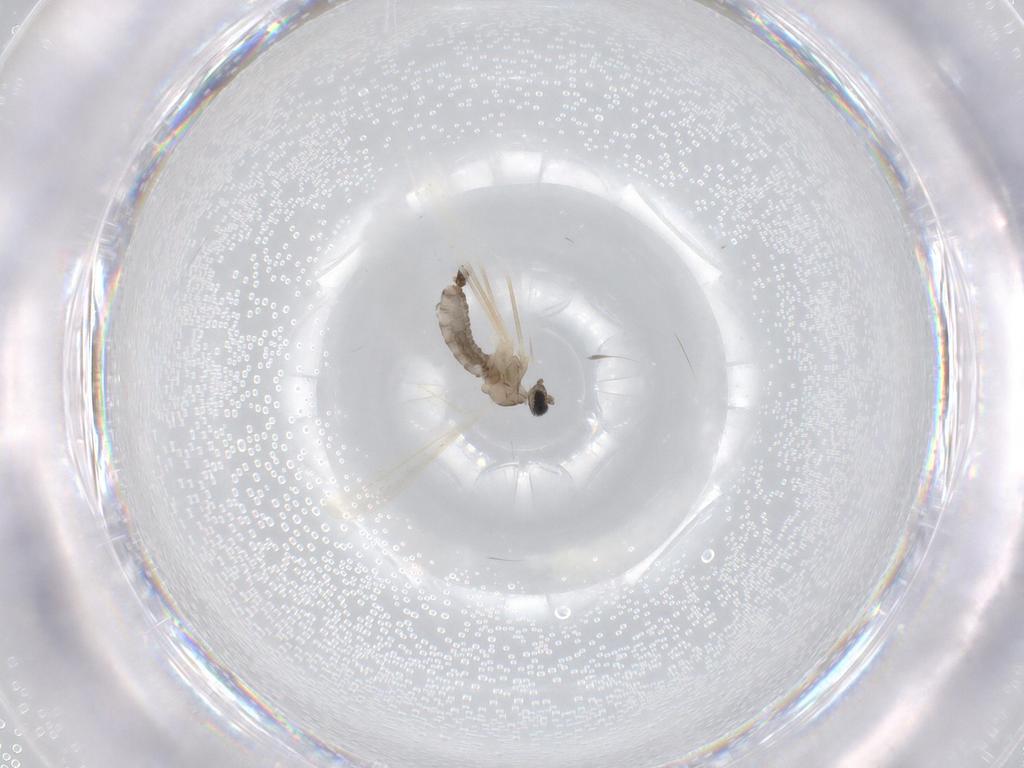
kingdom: Animalia
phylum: Arthropoda
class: Insecta
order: Diptera
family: Cecidomyiidae
